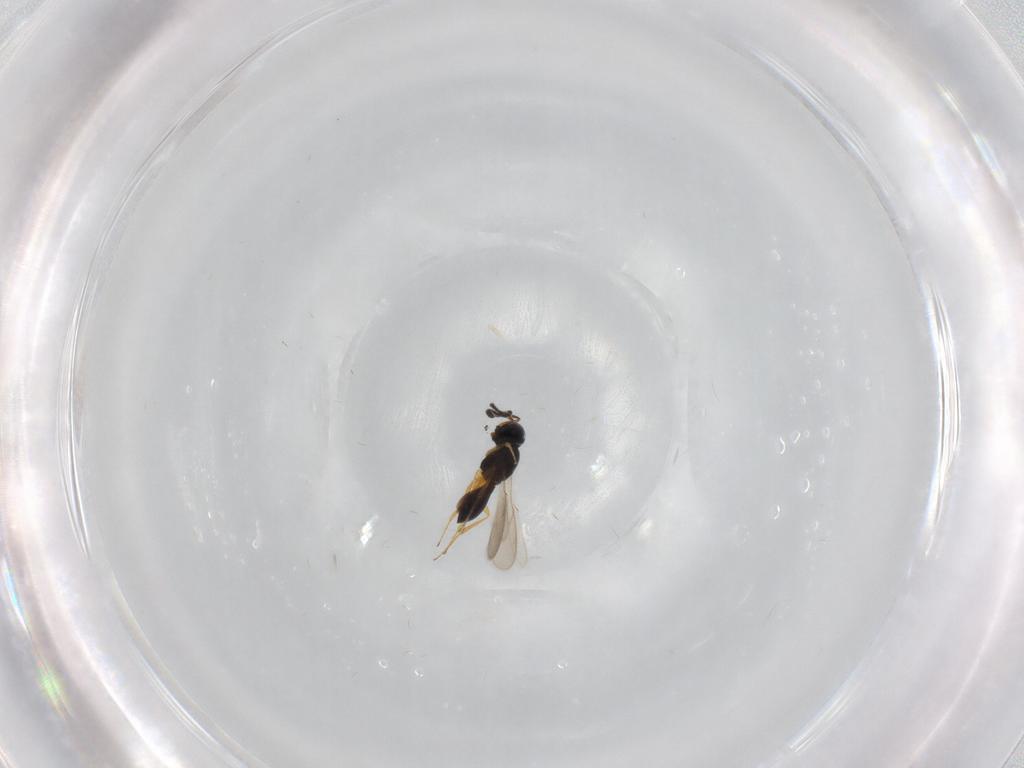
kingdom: Animalia
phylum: Arthropoda
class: Insecta
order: Hymenoptera
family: Scelionidae
